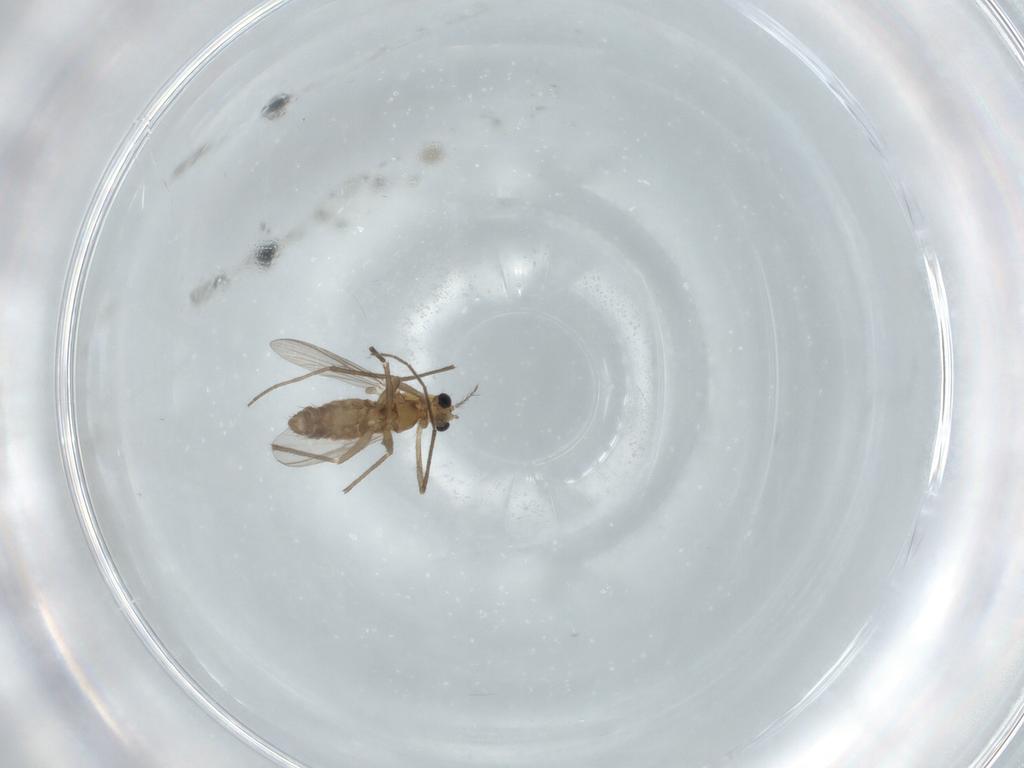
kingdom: Animalia
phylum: Arthropoda
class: Insecta
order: Diptera
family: Chironomidae
